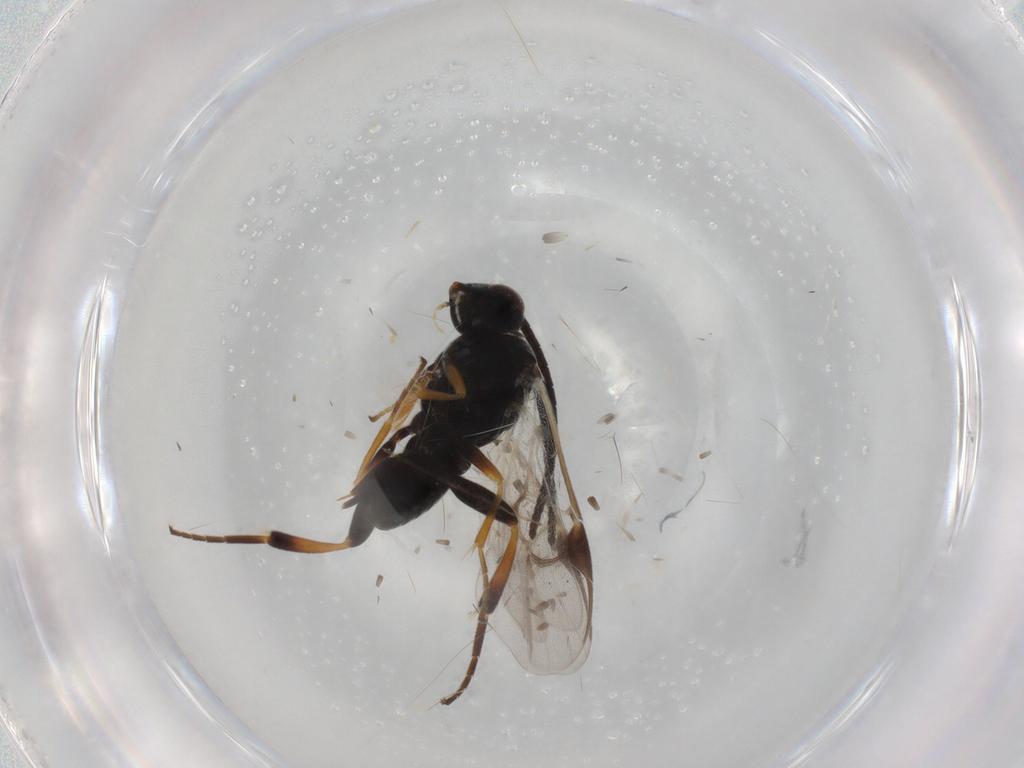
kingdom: Animalia
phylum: Arthropoda
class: Insecta
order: Hymenoptera
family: Braconidae
